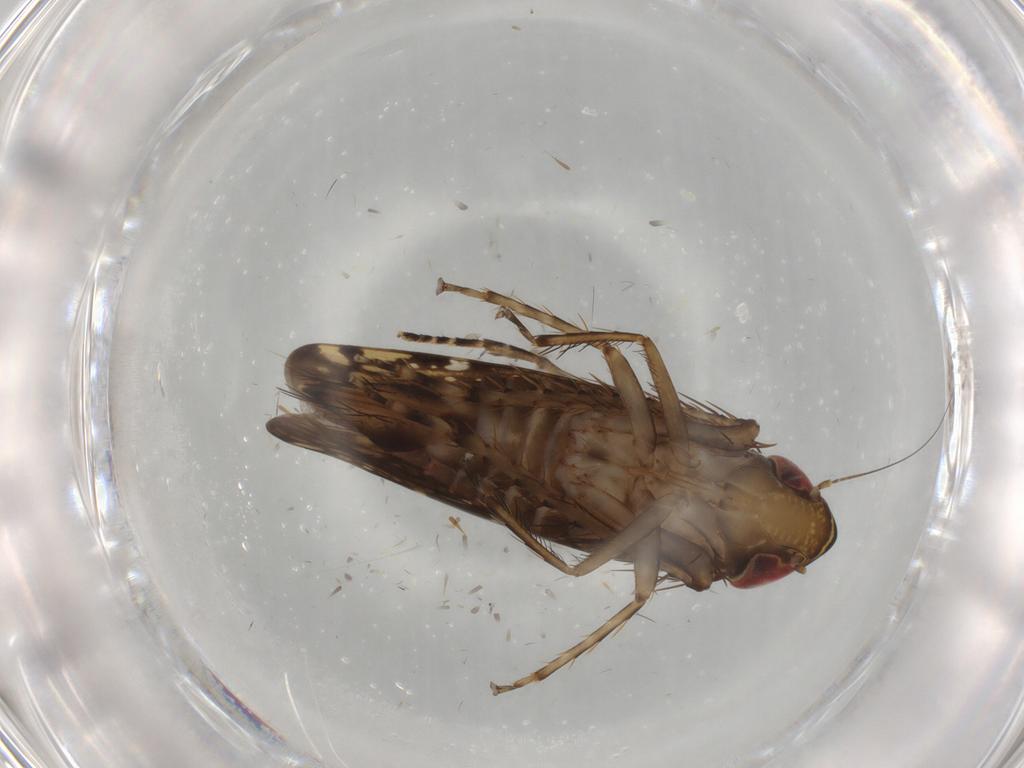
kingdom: Animalia
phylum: Arthropoda
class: Insecta
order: Hemiptera
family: Cicadellidae
